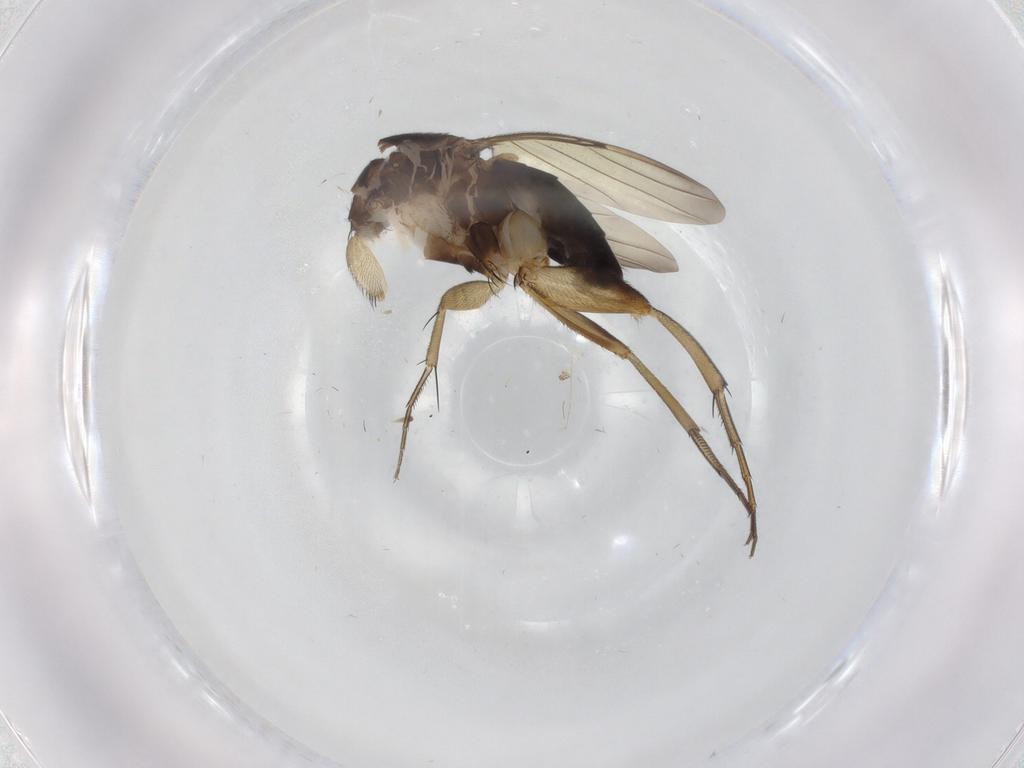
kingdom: Animalia
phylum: Arthropoda
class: Insecta
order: Diptera
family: Phoridae
